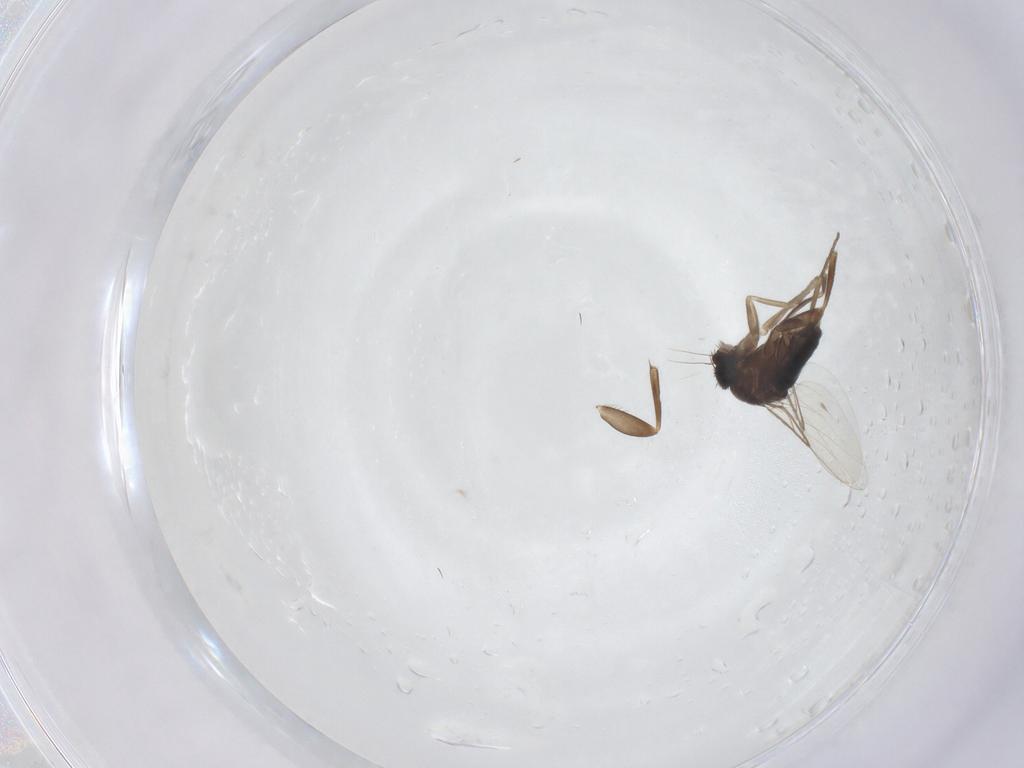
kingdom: Animalia
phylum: Arthropoda
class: Insecta
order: Diptera
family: Phoridae
